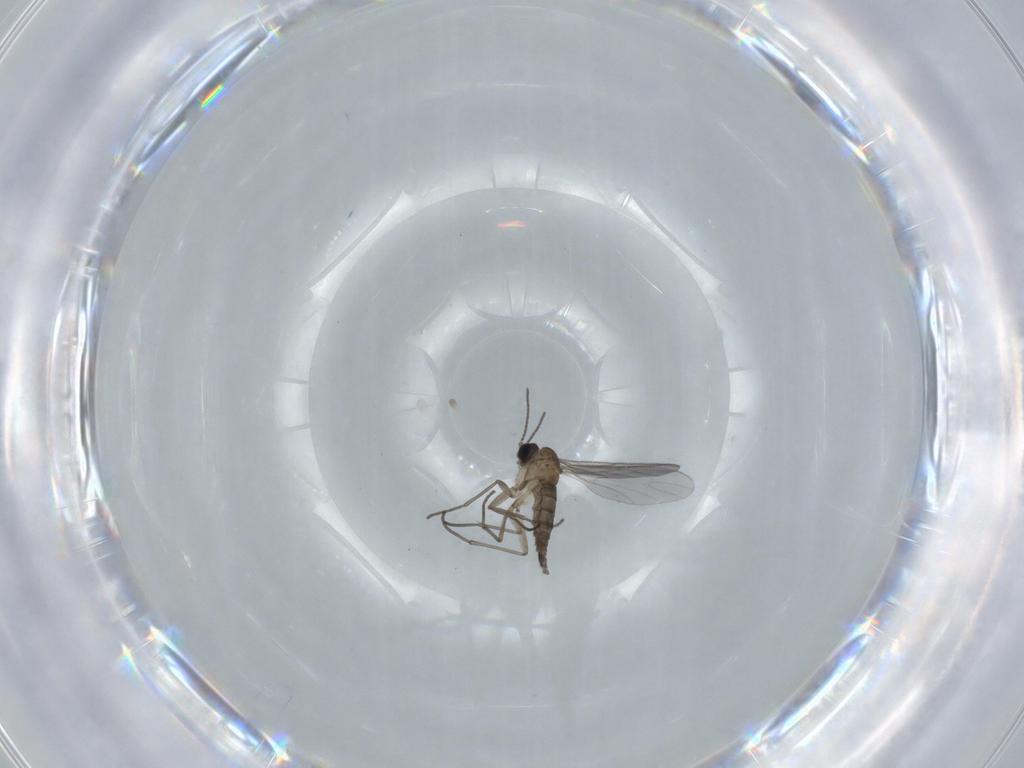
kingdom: Animalia
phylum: Arthropoda
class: Insecta
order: Diptera
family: Sciaridae
